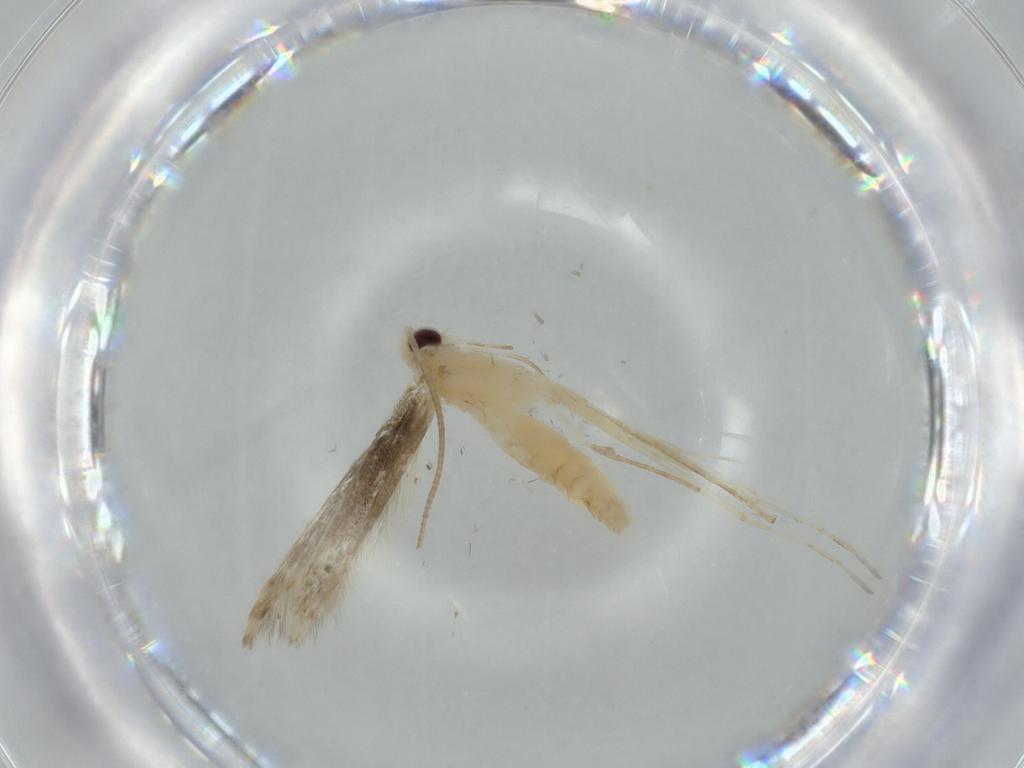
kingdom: Animalia
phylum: Arthropoda
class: Insecta
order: Lepidoptera
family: Gracillariidae
